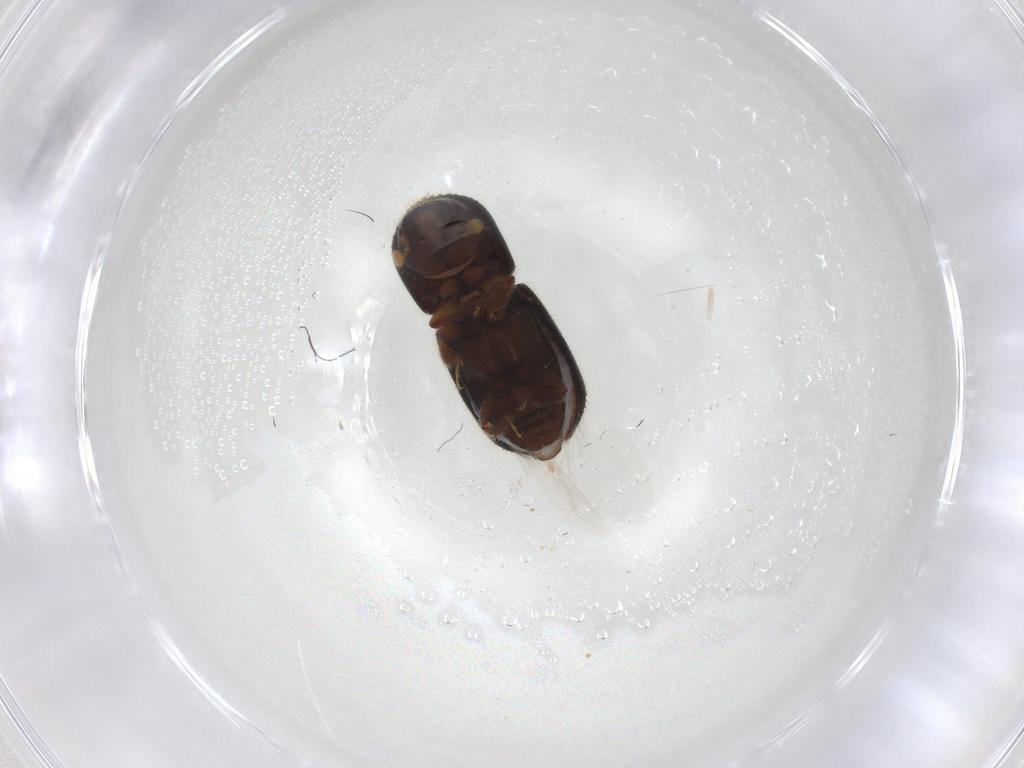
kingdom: Animalia
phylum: Arthropoda
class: Insecta
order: Coleoptera
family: Curculionidae
